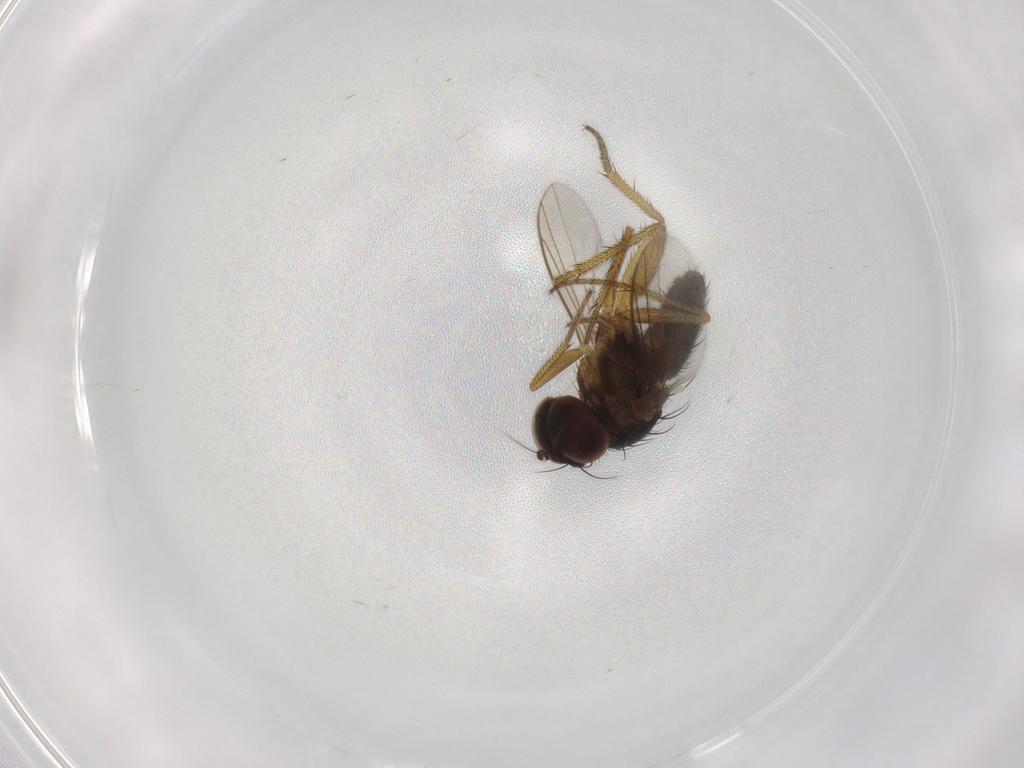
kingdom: Animalia
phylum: Arthropoda
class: Insecta
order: Diptera
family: Dolichopodidae
